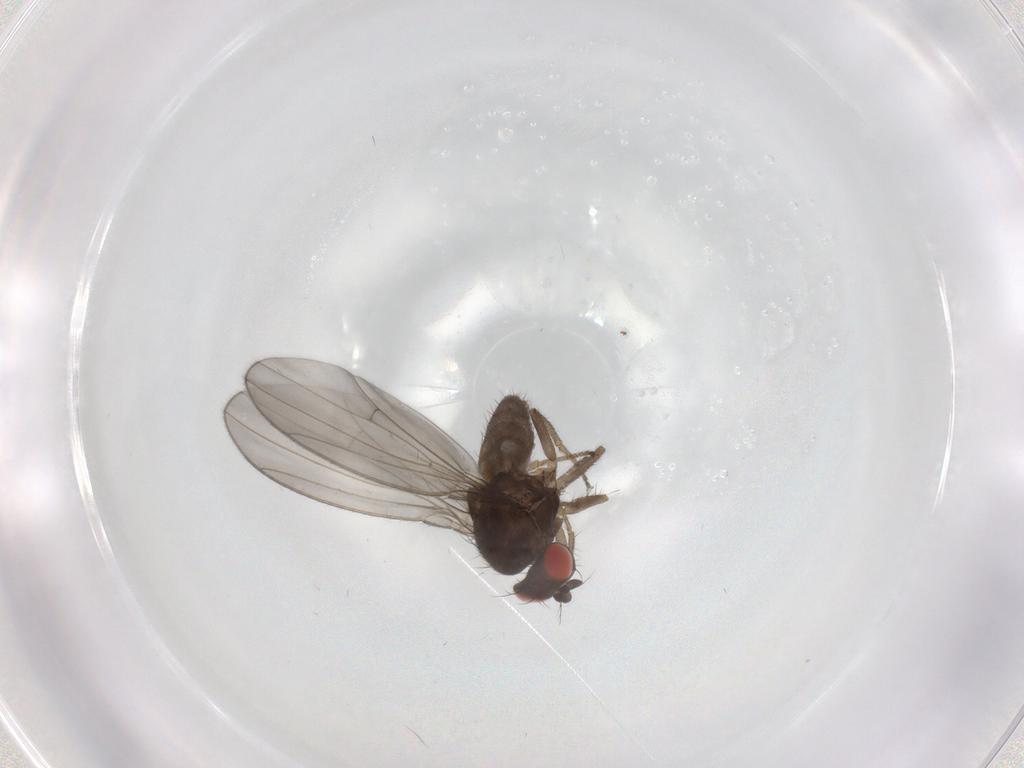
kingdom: Animalia
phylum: Arthropoda
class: Insecta
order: Diptera
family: Drosophilidae
